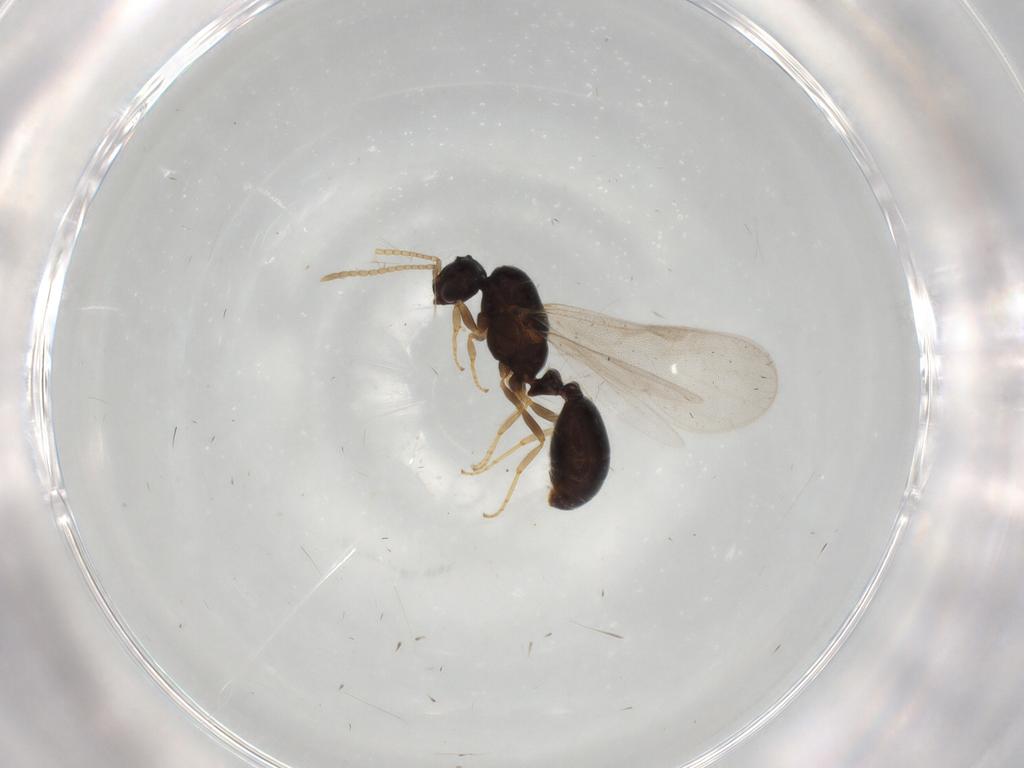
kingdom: Animalia
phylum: Arthropoda
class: Insecta
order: Hymenoptera
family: Formicidae
